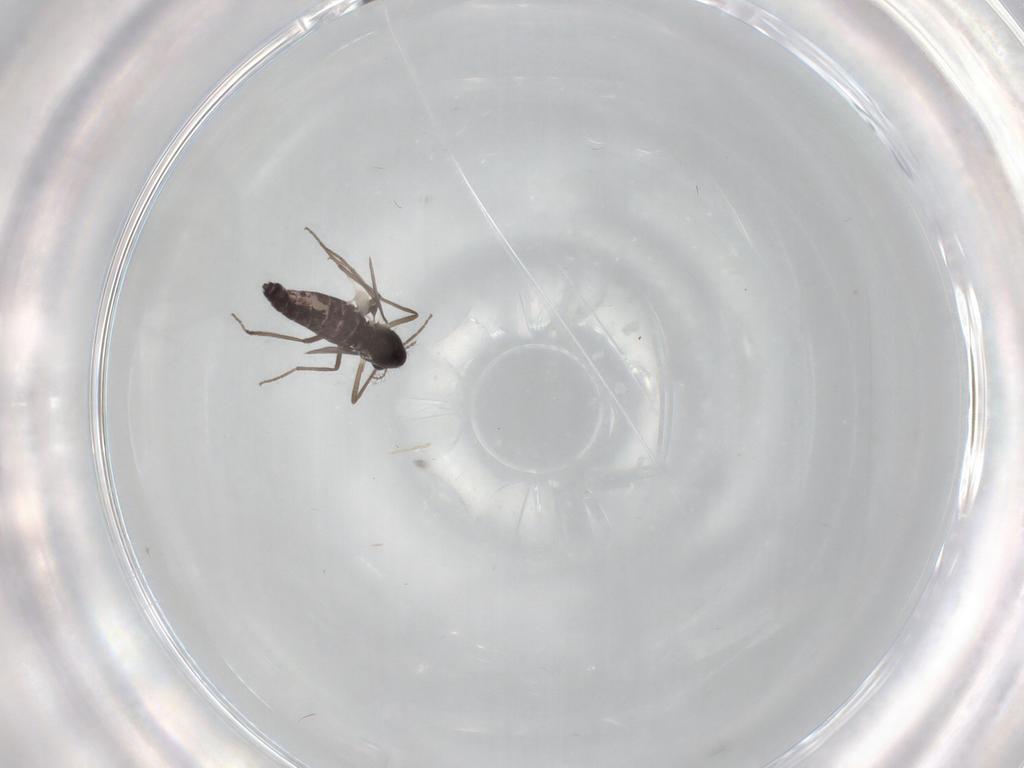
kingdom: Animalia
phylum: Arthropoda
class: Insecta
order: Diptera
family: Chironomidae
